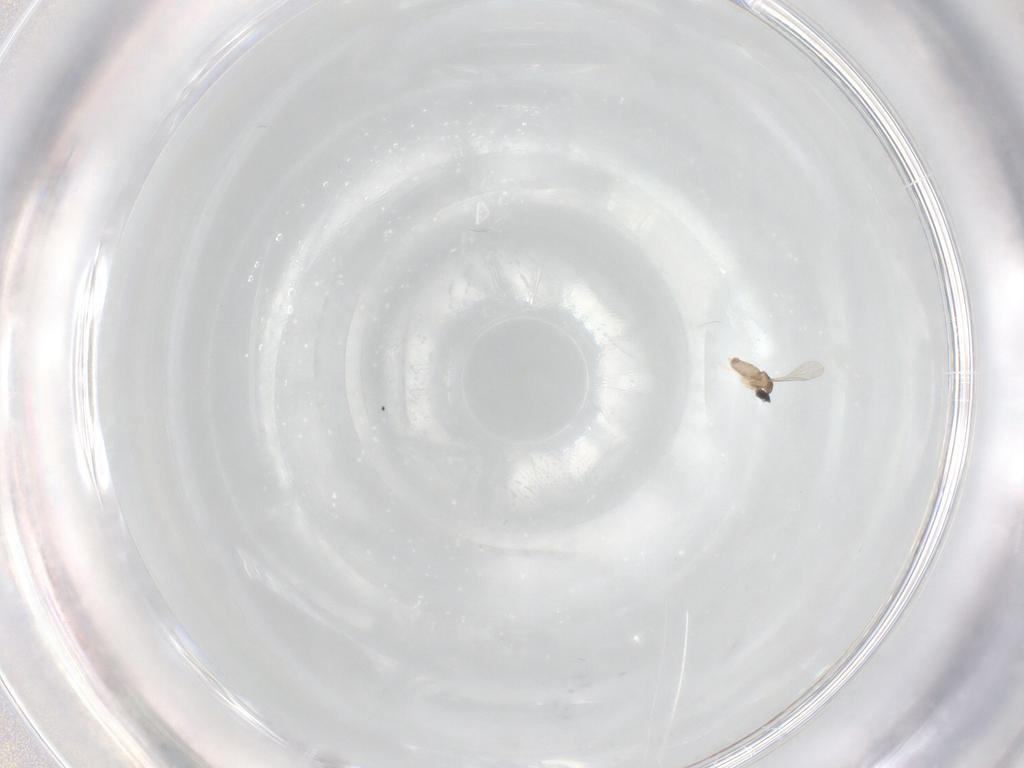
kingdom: Animalia
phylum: Arthropoda
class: Insecta
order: Diptera
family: Cecidomyiidae
